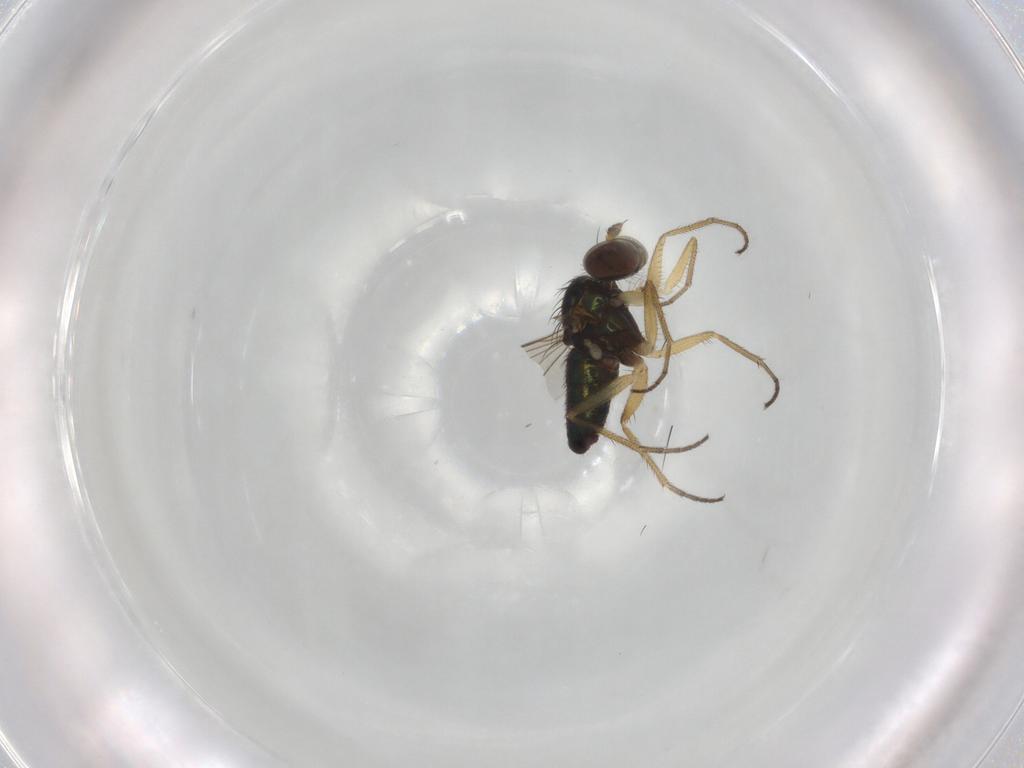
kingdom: Animalia
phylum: Arthropoda
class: Insecta
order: Diptera
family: Dolichopodidae
